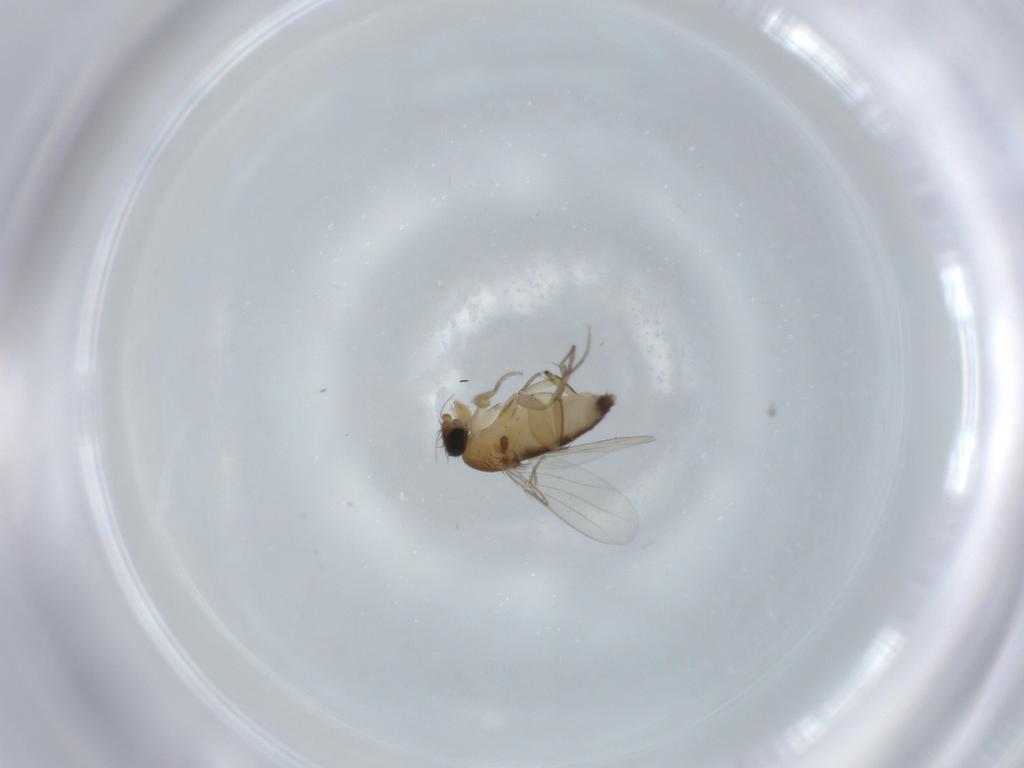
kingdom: Animalia
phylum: Arthropoda
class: Insecta
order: Diptera
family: Phoridae
